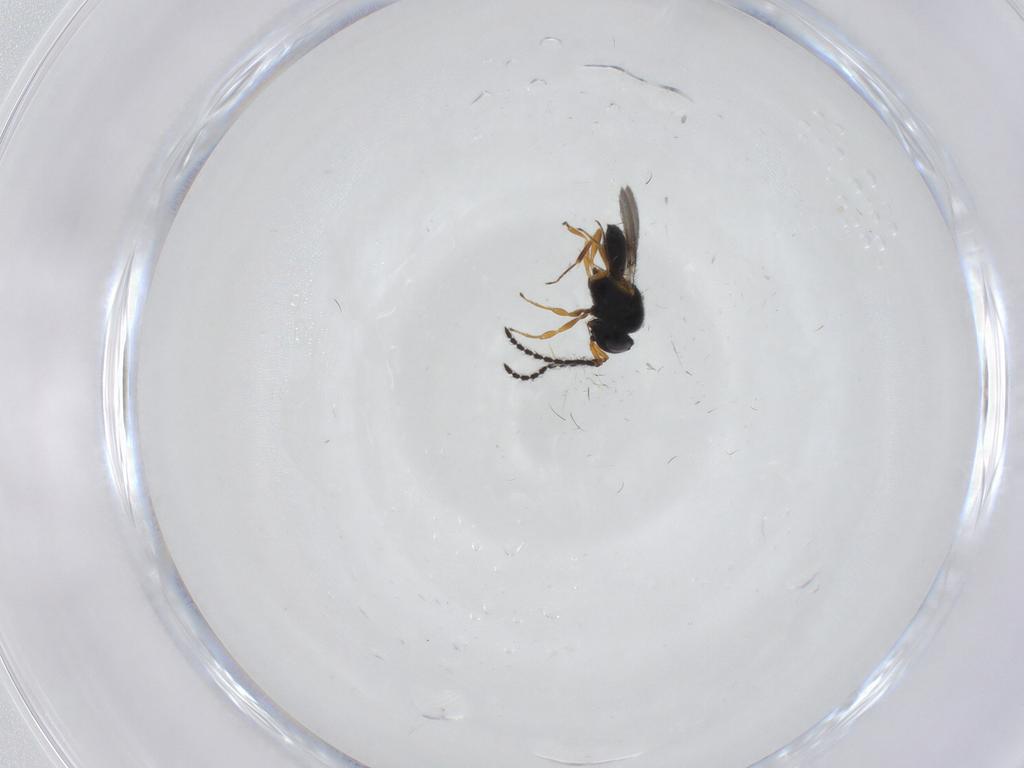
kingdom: Animalia
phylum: Arthropoda
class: Insecta
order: Hymenoptera
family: Scelionidae
